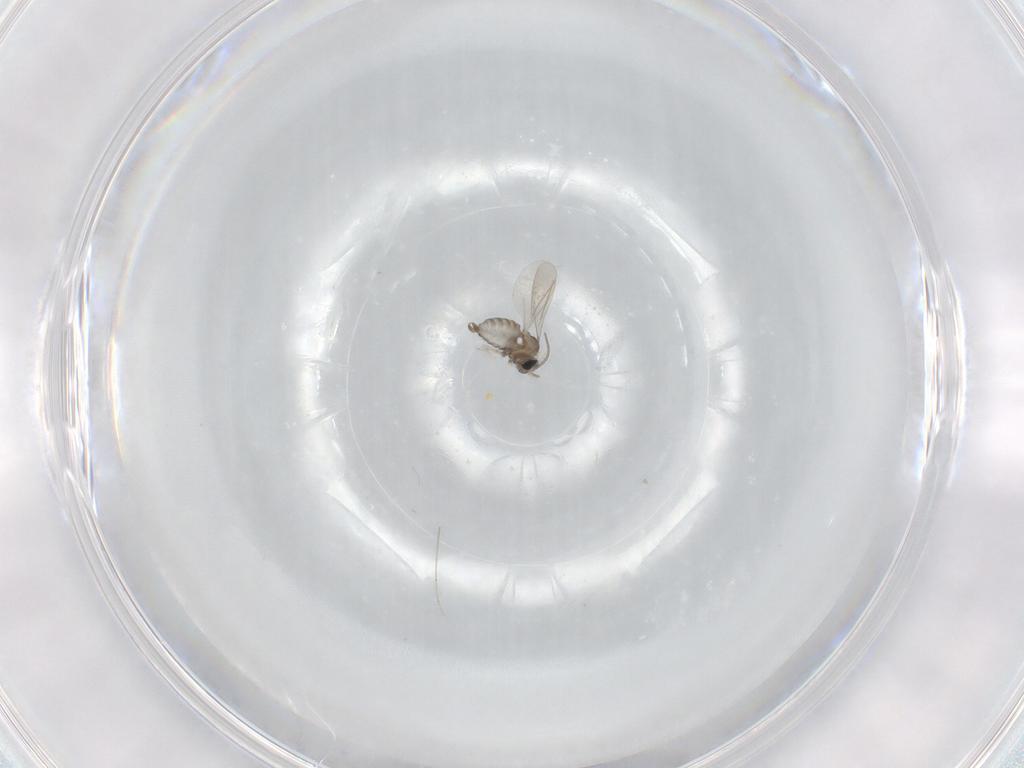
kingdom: Animalia
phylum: Arthropoda
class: Insecta
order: Diptera
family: Cecidomyiidae
